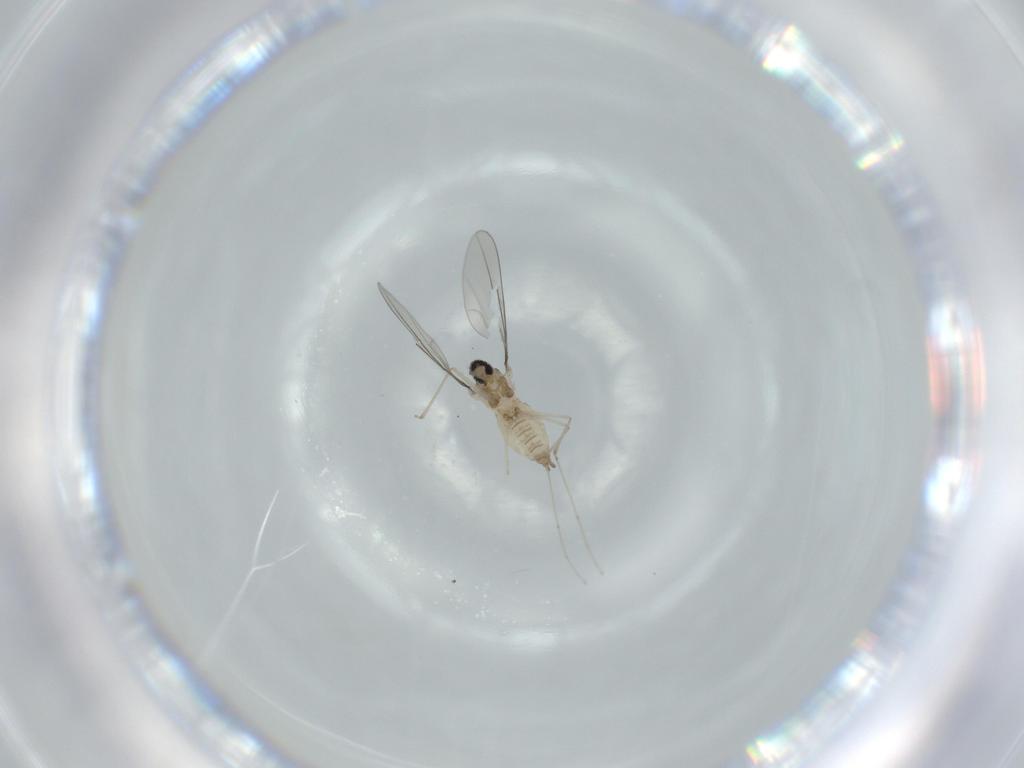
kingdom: Animalia
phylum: Arthropoda
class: Insecta
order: Diptera
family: Cecidomyiidae
